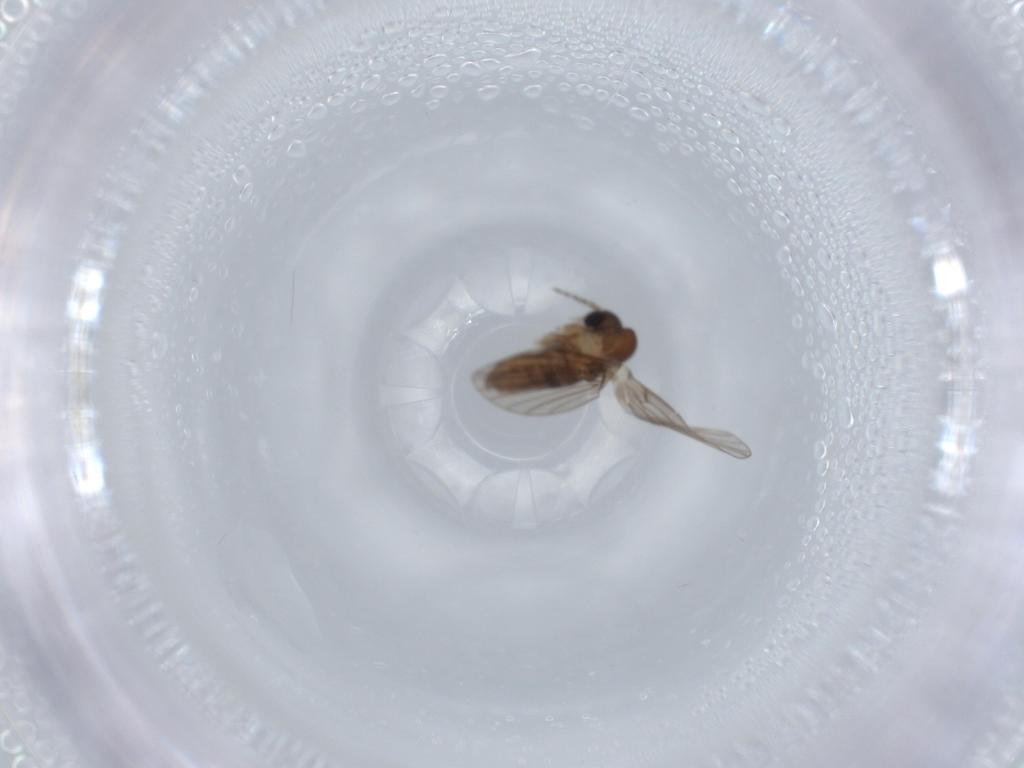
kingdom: Animalia
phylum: Arthropoda
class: Insecta
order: Diptera
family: Psychodidae
